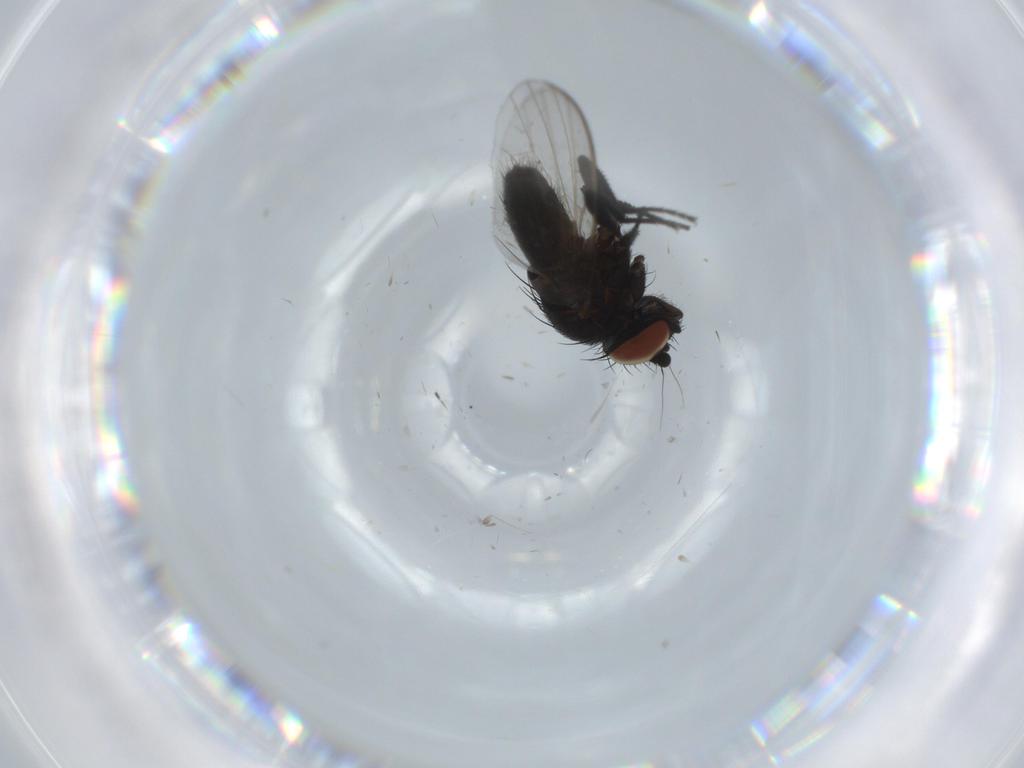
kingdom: Animalia
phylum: Arthropoda
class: Insecta
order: Diptera
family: Milichiidae
